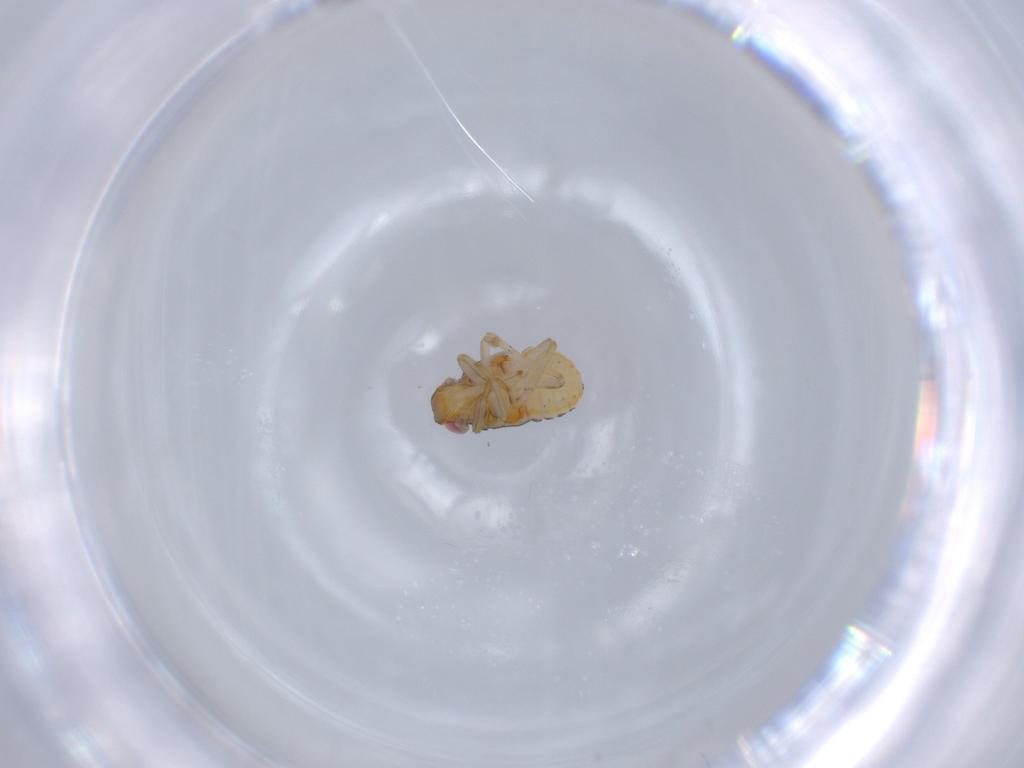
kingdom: Animalia
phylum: Arthropoda
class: Insecta
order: Hemiptera
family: Issidae
